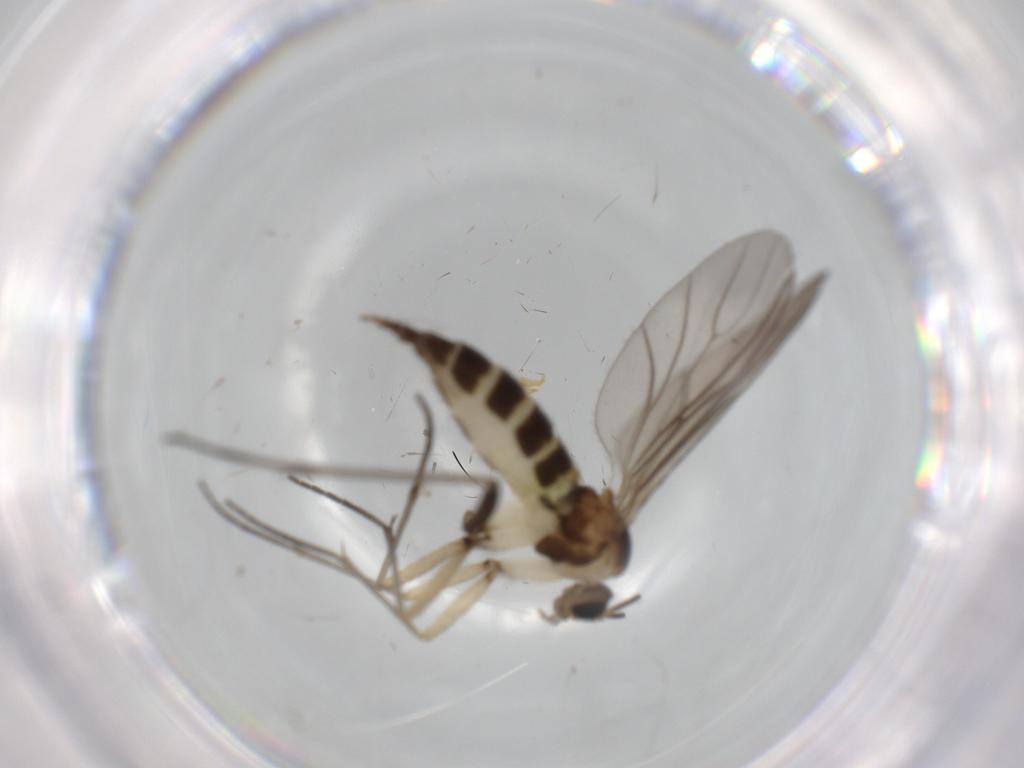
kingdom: Animalia
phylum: Arthropoda
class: Insecta
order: Diptera
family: Sciaridae
